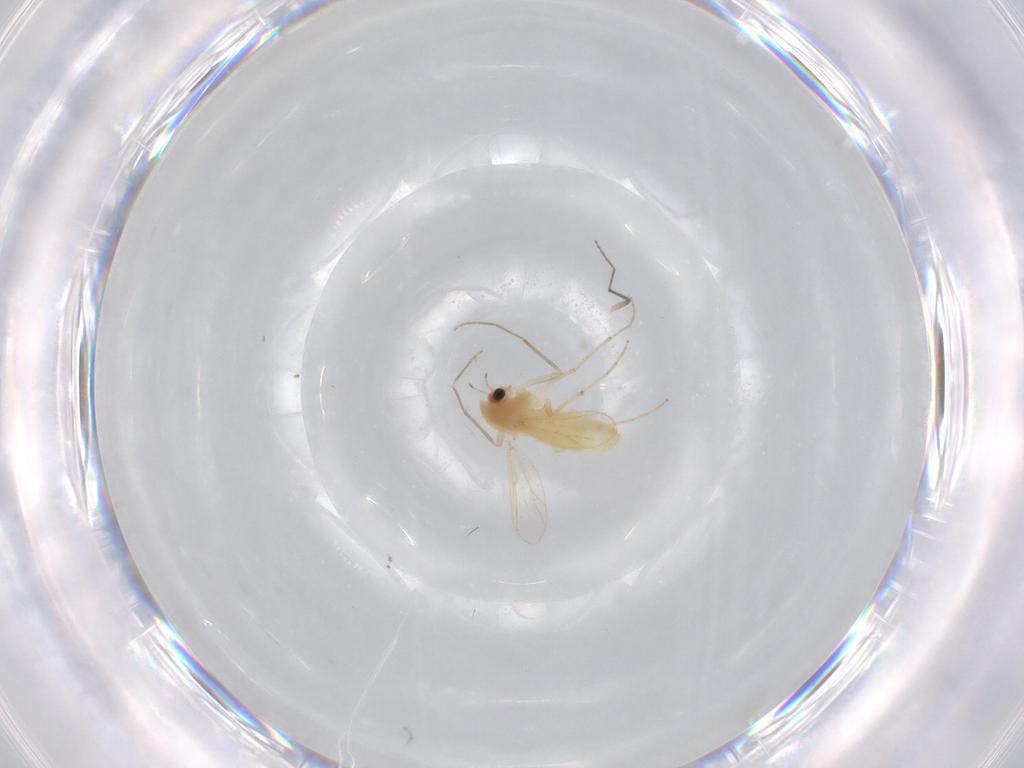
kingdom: Animalia
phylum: Arthropoda
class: Insecta
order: Diptera
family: Chironomidae
